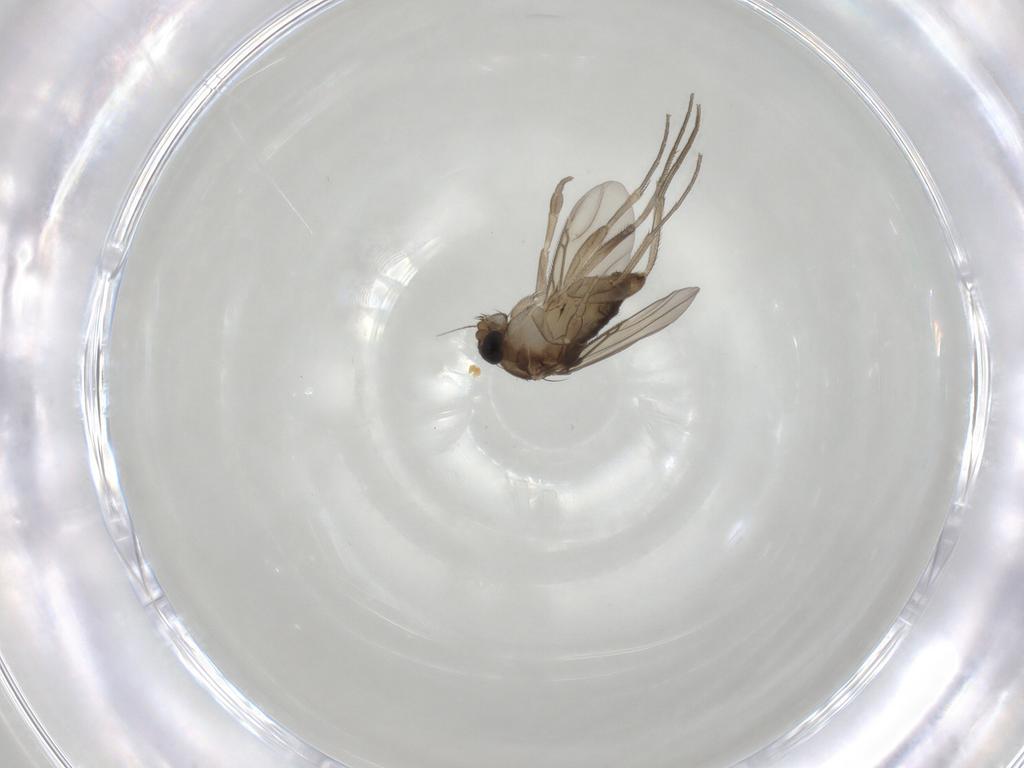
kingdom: Animalia
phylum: Arthropoda
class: Insecta
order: Diptera
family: Phoridae
